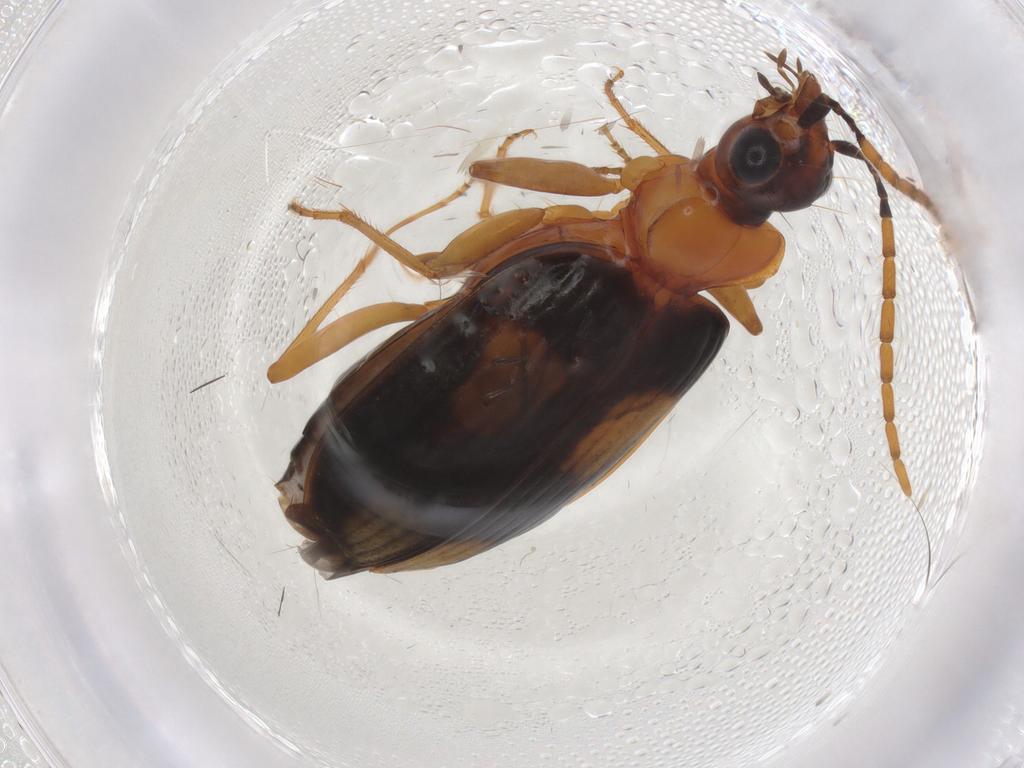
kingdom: Animalia
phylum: Arthropoda
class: Insecta
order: Coleoptera
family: Carabidae
